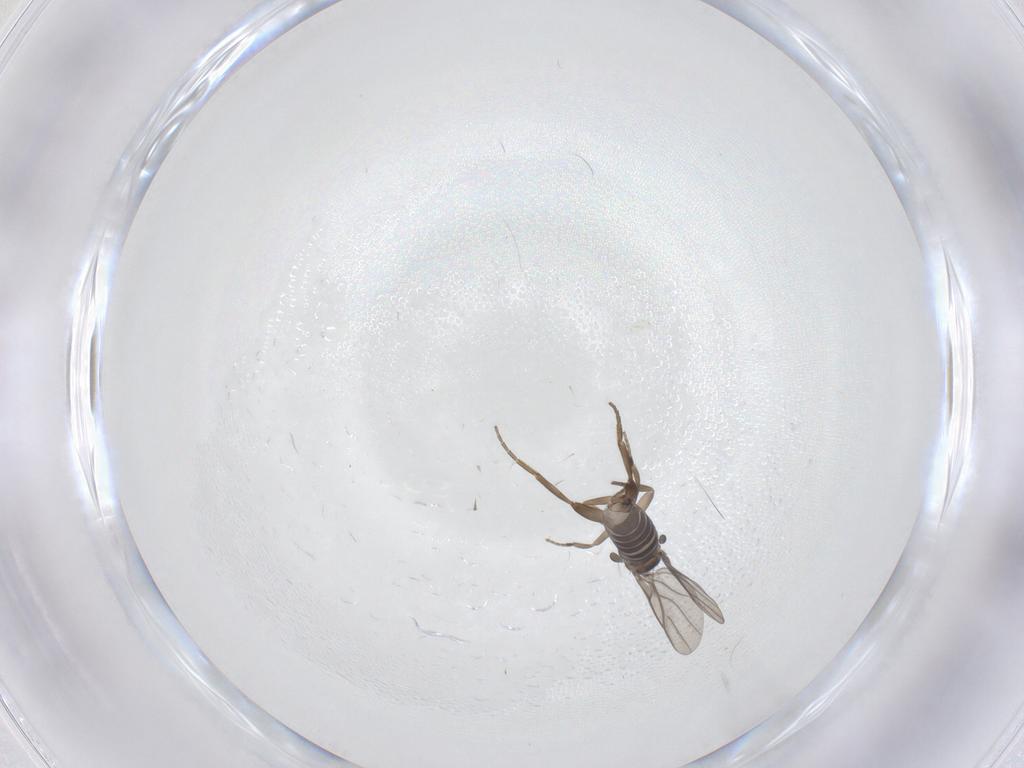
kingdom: Animalia
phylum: Arthropoda
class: Insecta
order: Diptera
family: Phoridae
